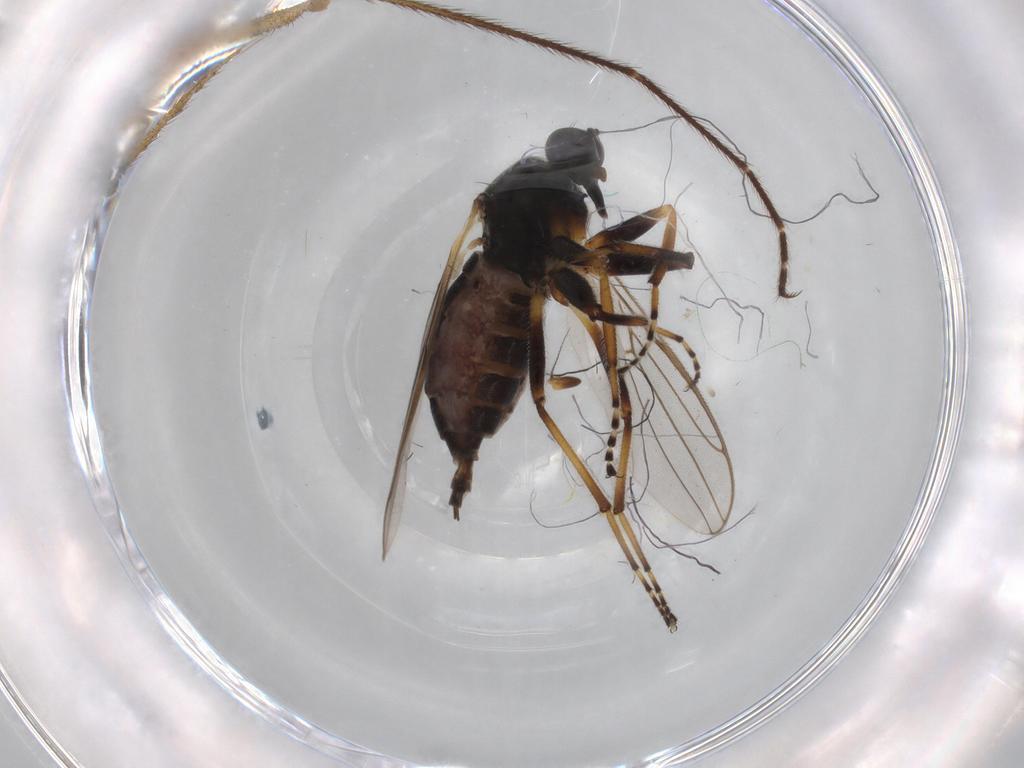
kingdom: Animalia
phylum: Arthropoda
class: Insecta
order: Diptera
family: Hybotidae
